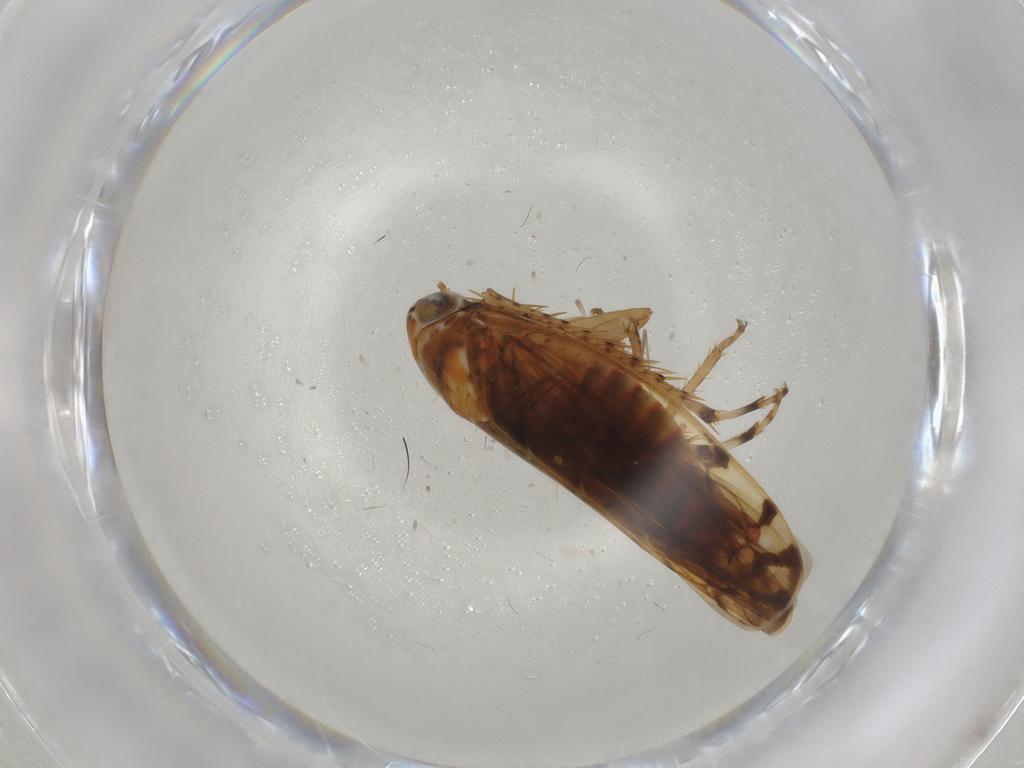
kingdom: Animalia
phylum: Arthropoda
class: Insecta
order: Hemiptera
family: Cicadellidae
